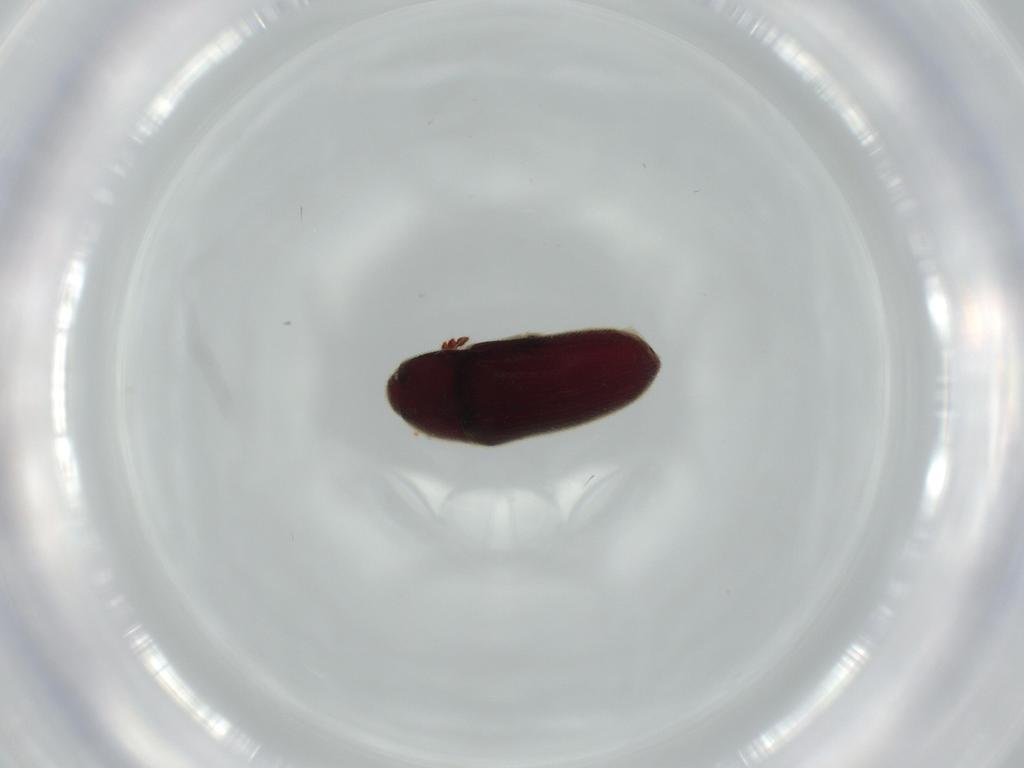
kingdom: Animalia
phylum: Arthropoda
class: Insecta
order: Coleoptera
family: Throscidae
